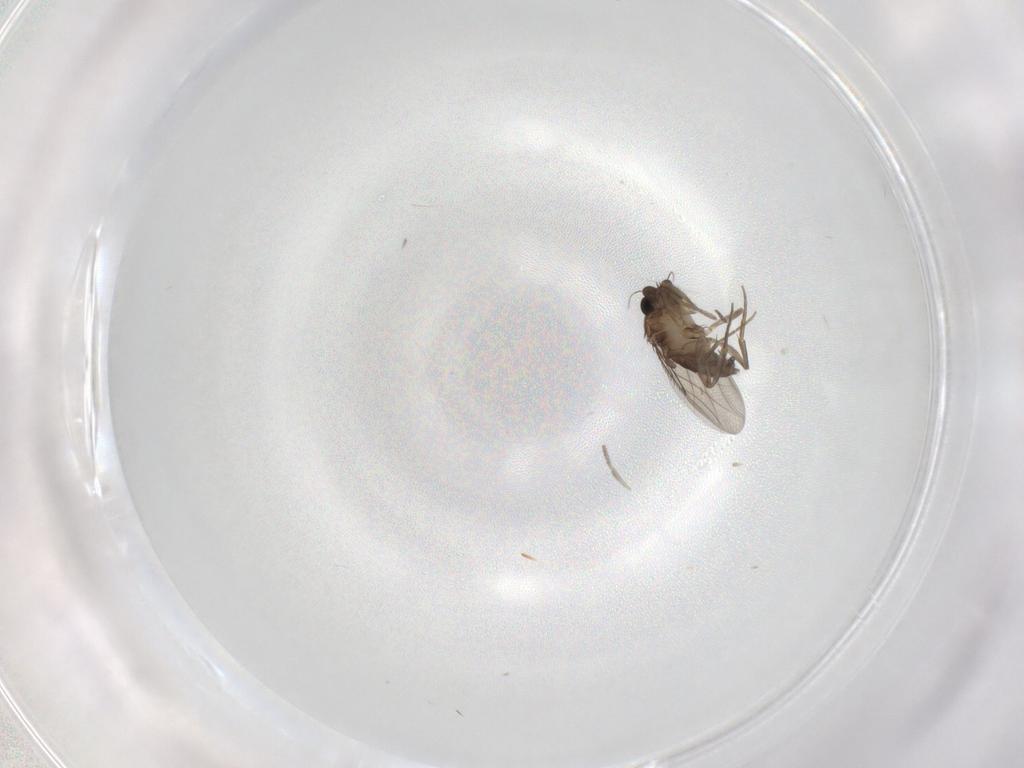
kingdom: Animalia
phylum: Arthropoda
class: Insecta
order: Diptera
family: Phoridae
